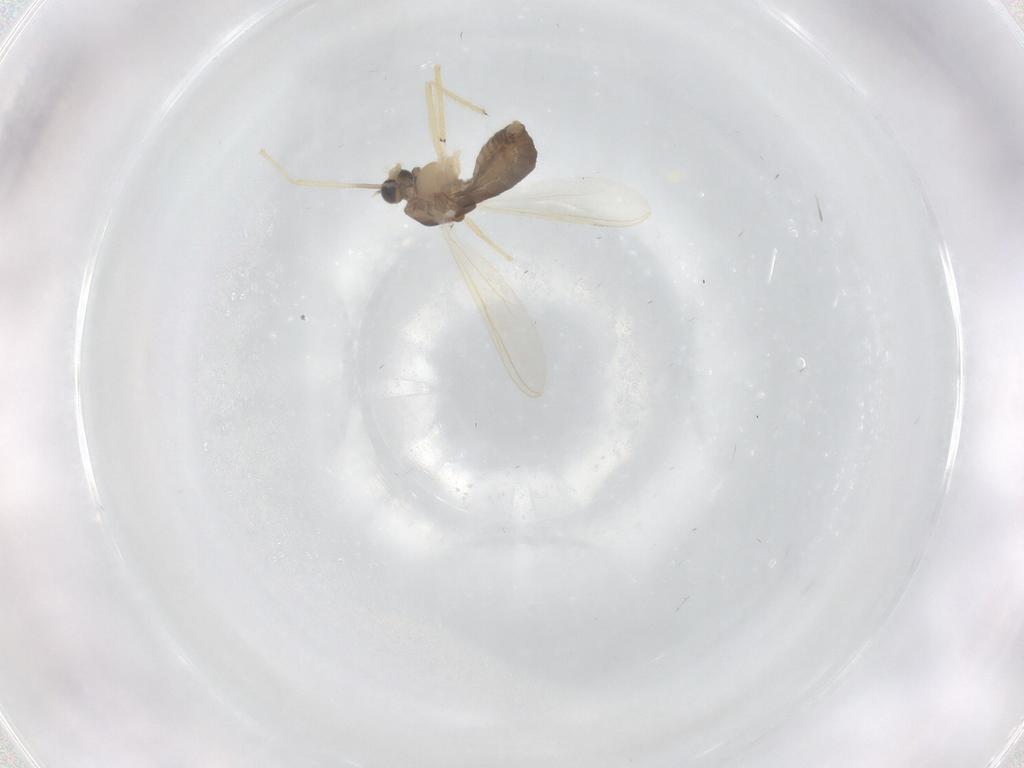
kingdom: Animalia
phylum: Arthropoda
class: Insecta
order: Diptera
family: Chironomidae
